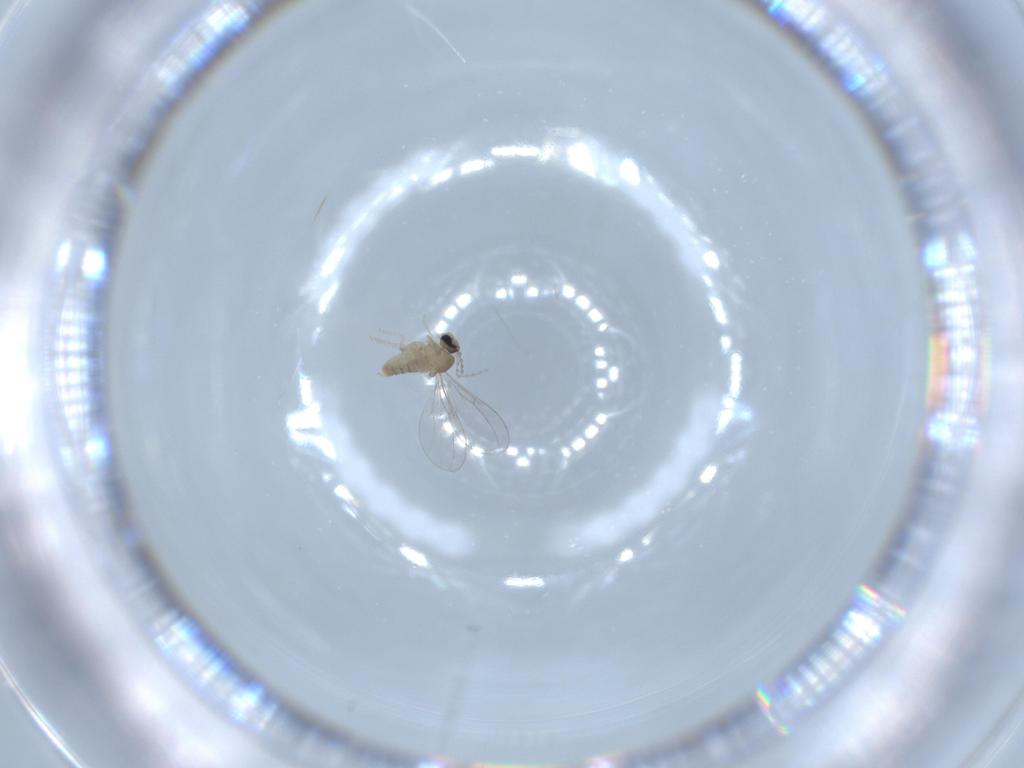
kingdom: Animalia
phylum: Arthropoda
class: Insecta
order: Diptera
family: Cecidomyiidae
